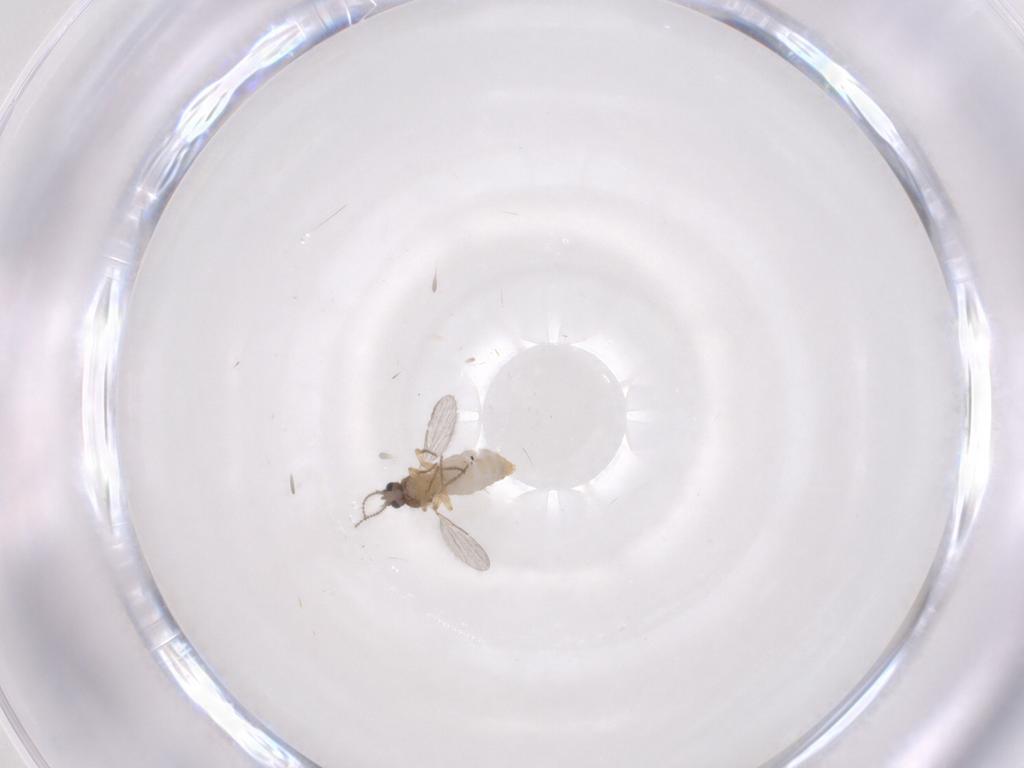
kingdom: Animalia
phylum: Arthropoda
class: Insecta
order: Diptera
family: Ceratopogonidae
